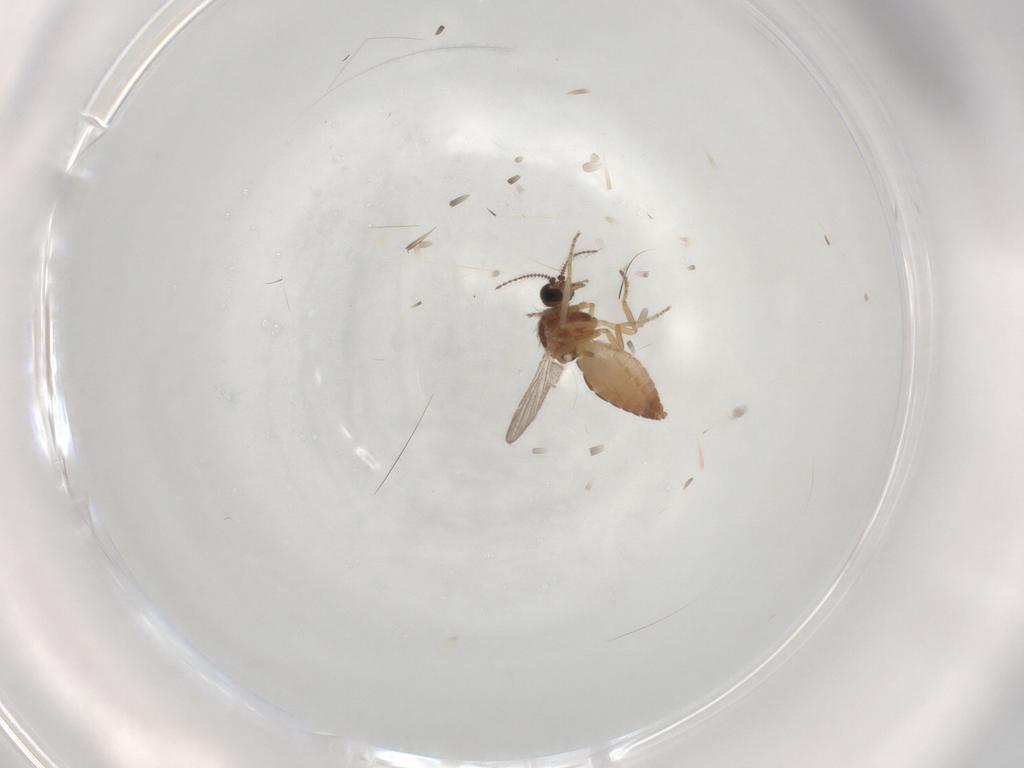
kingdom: Animalia
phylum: Arthropoda
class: Insecta
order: Diptera
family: Ceratopogonidae
